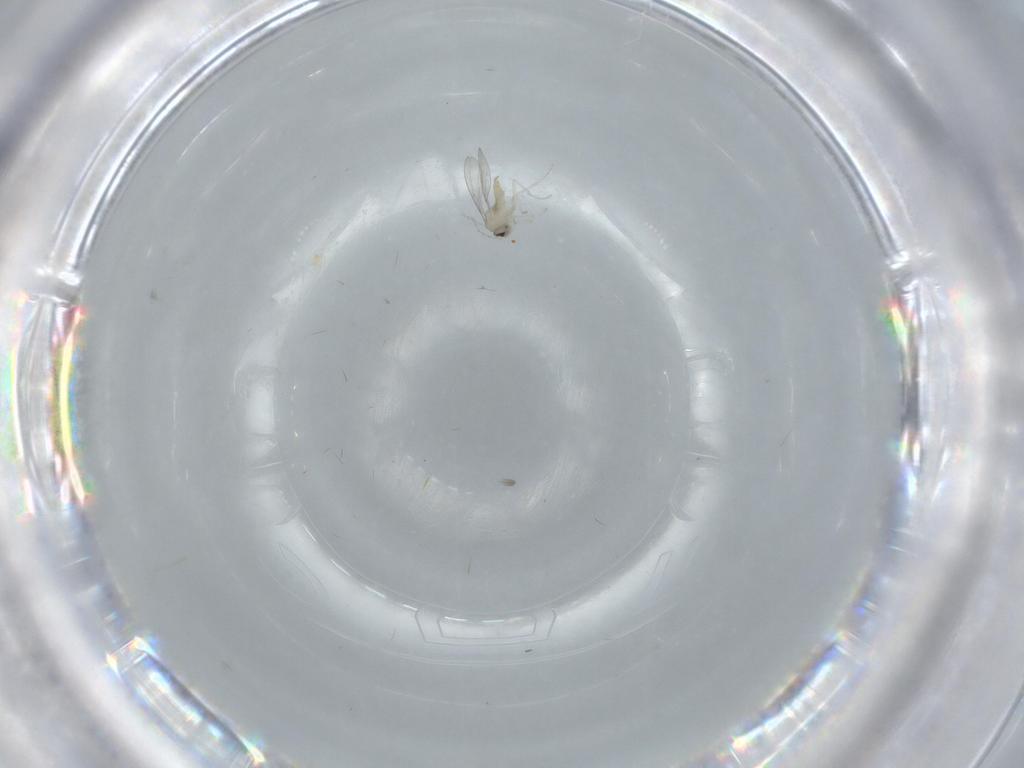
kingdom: Animalia
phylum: Arthropoda
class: Insecta
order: Diptera
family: Cecidomyiidae
